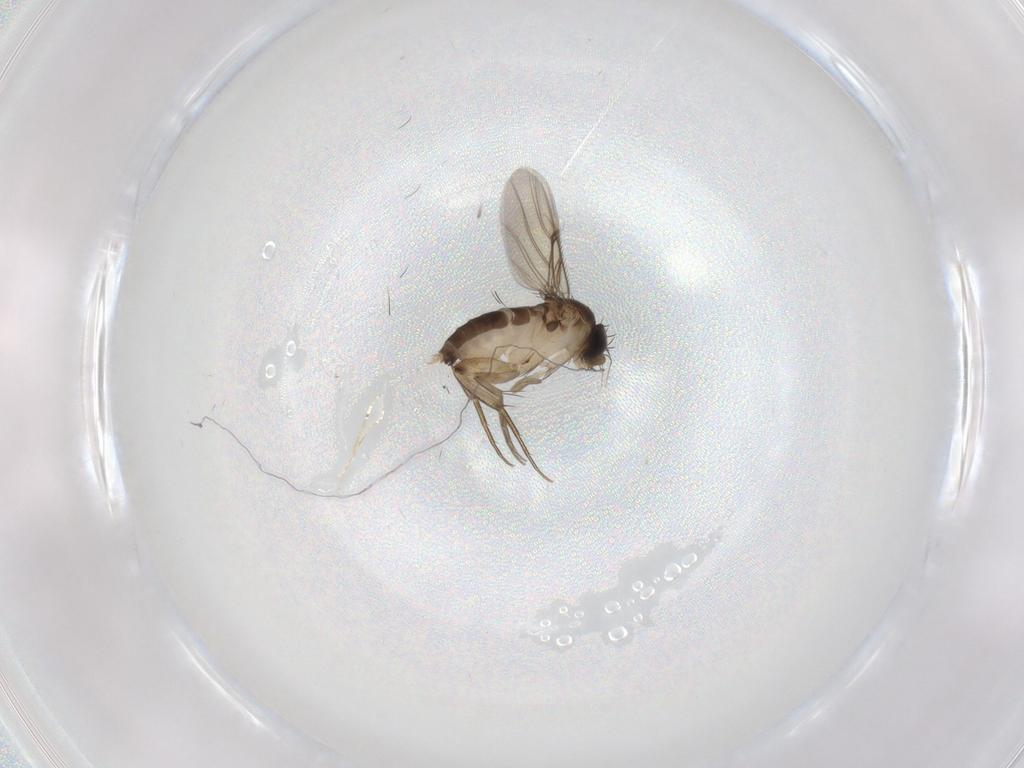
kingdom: Animalia
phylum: Arthropoda
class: Insecta
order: Diptera
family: Phoridae
